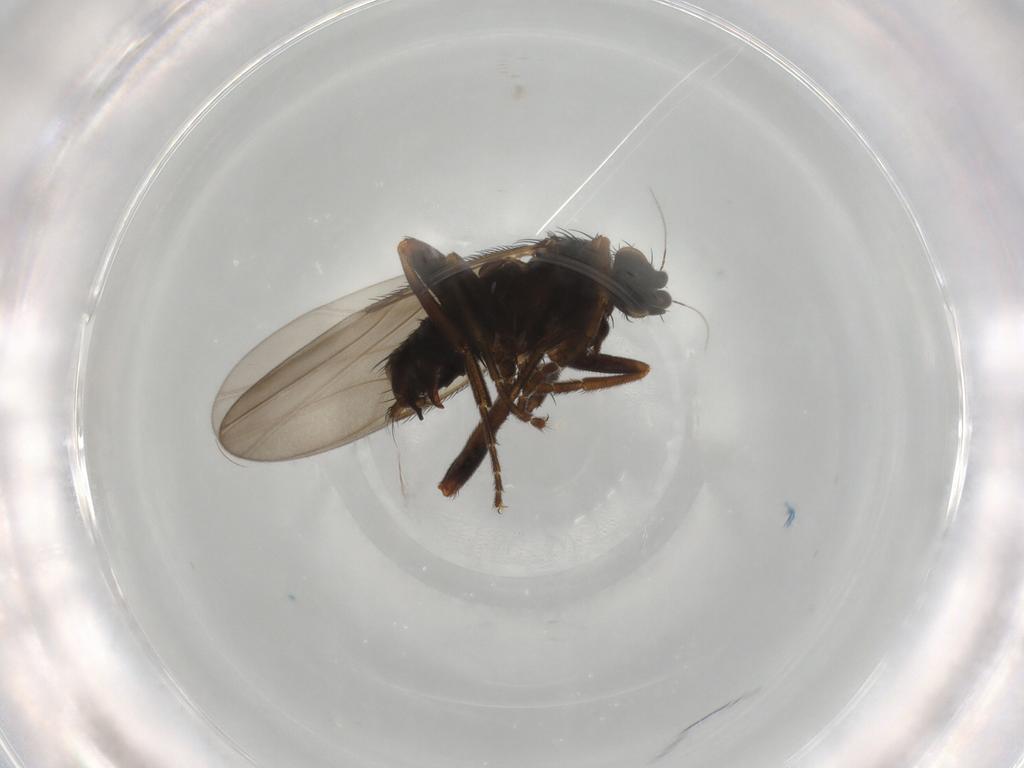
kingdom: Animalia
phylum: Arthropoda
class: Insecta
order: Diptera
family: Phoridae
